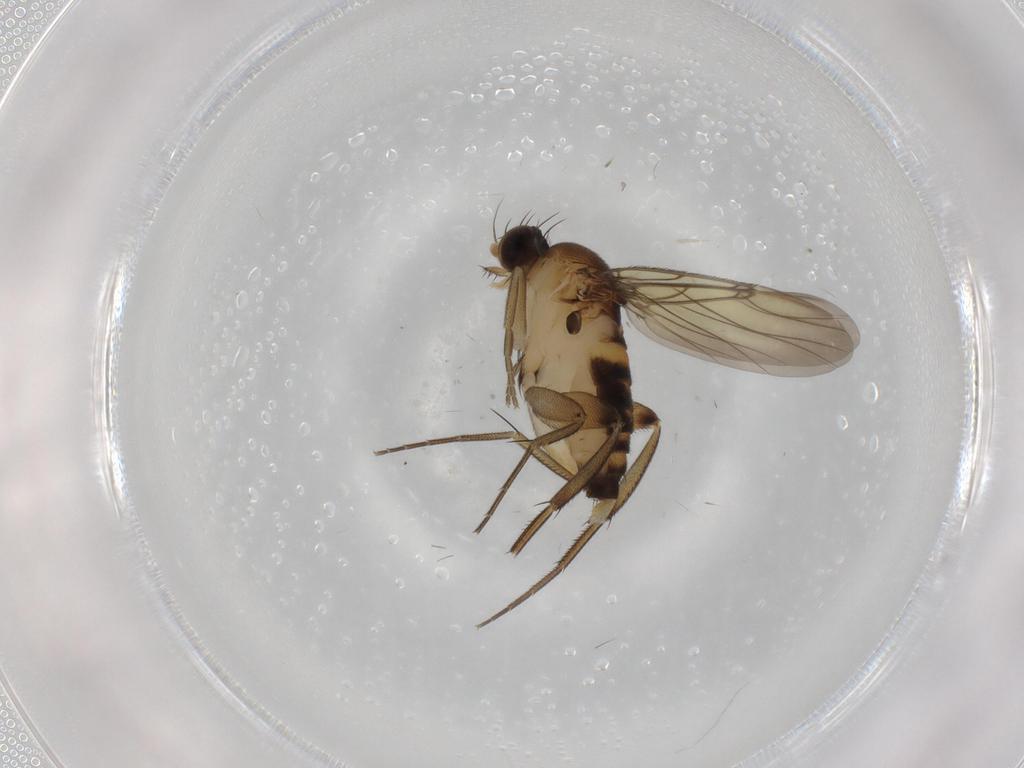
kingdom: Animalia
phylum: Arthropoda
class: Insecta
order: Diptera
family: Phoridae
